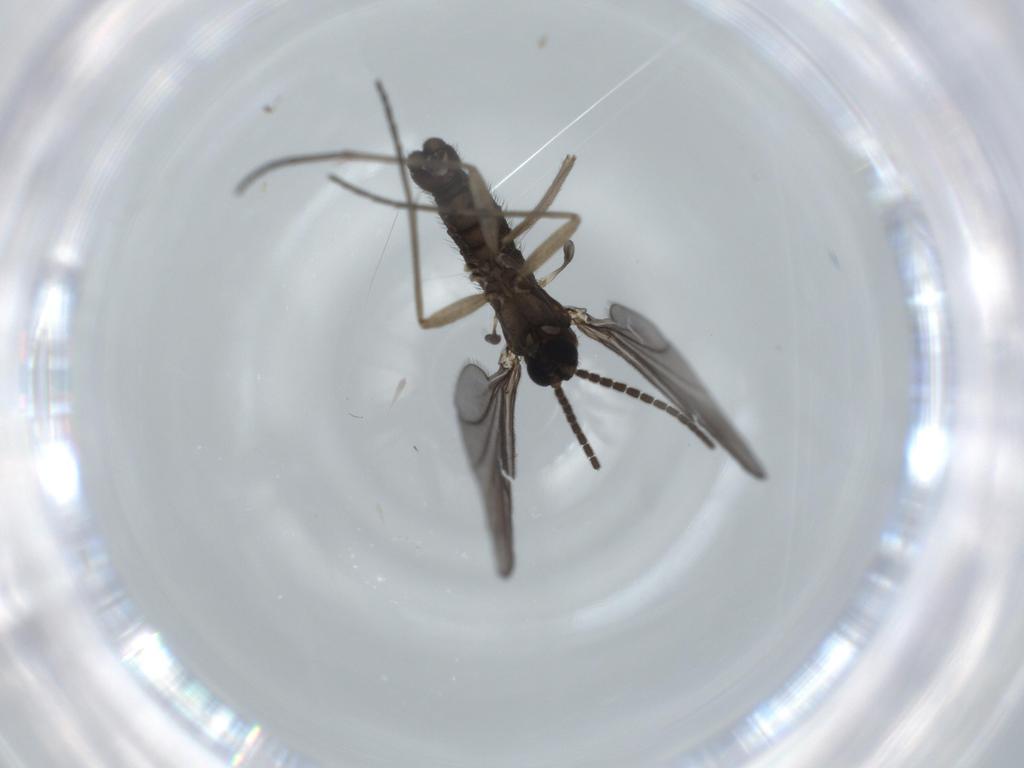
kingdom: Animalia
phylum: Arthropoda
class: Insecta
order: Diptera
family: Sciaridae
